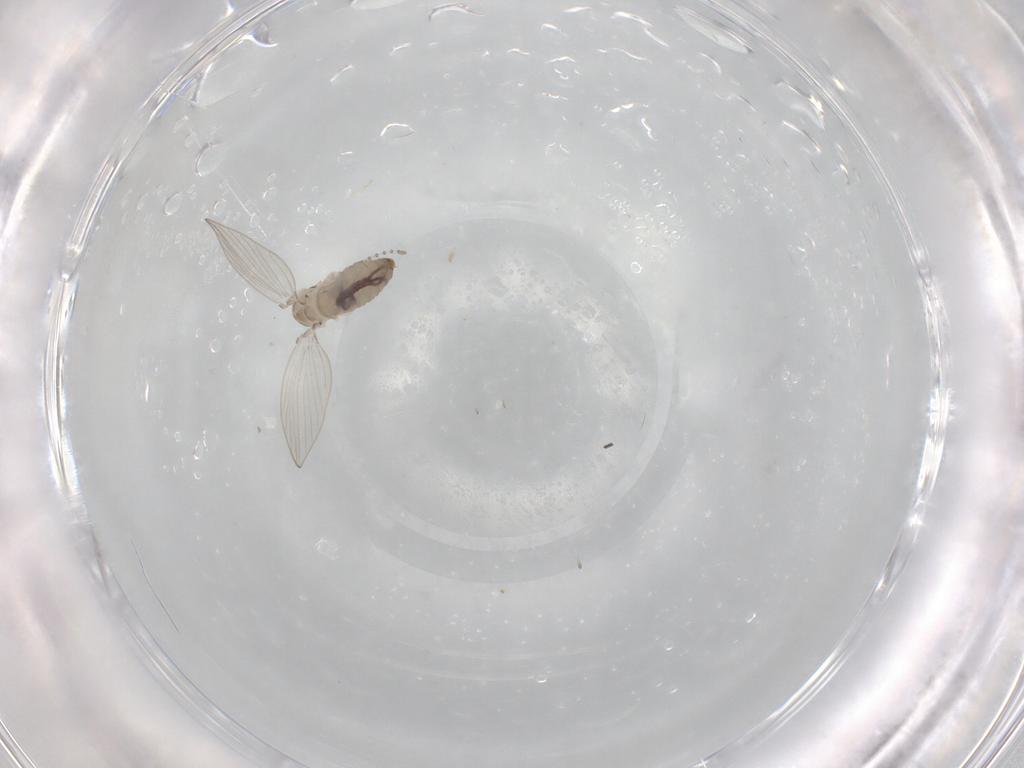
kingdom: Animalia
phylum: Arthropoda
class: Insecta
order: Diptera
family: Psychodidae
